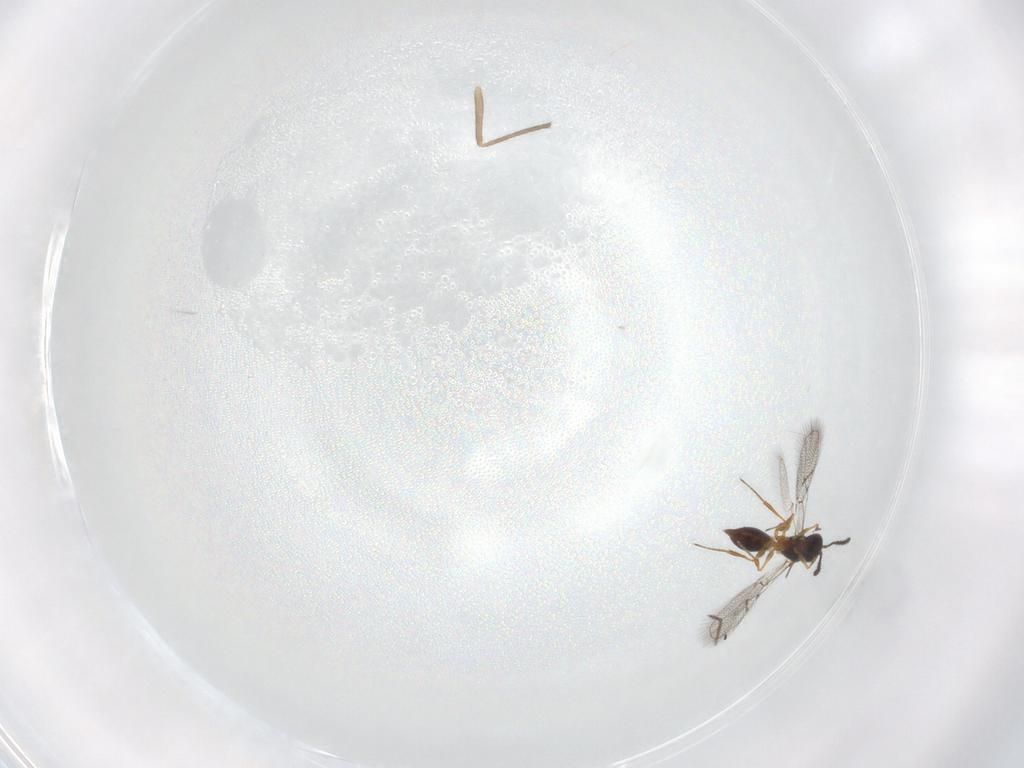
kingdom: Animalia
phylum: Arthropoda
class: Insecta
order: Hymenoptera
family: Figitidae
